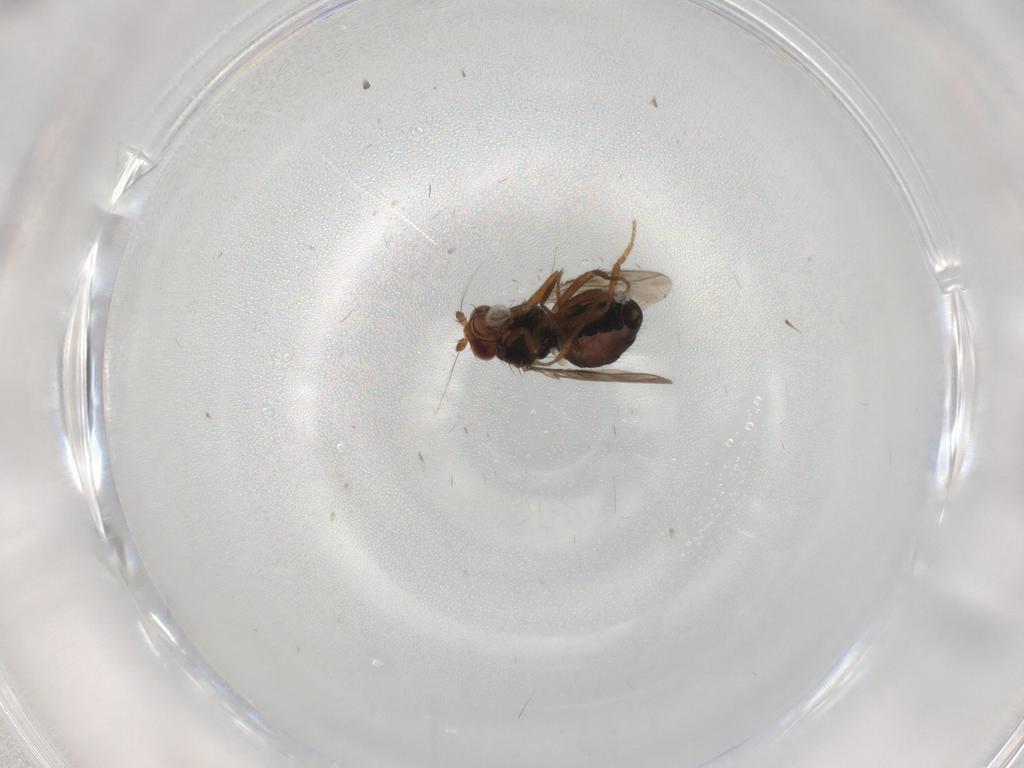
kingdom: Animalia
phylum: Arthropoda
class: Insecta
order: Diptera
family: Sphaeroceridae
